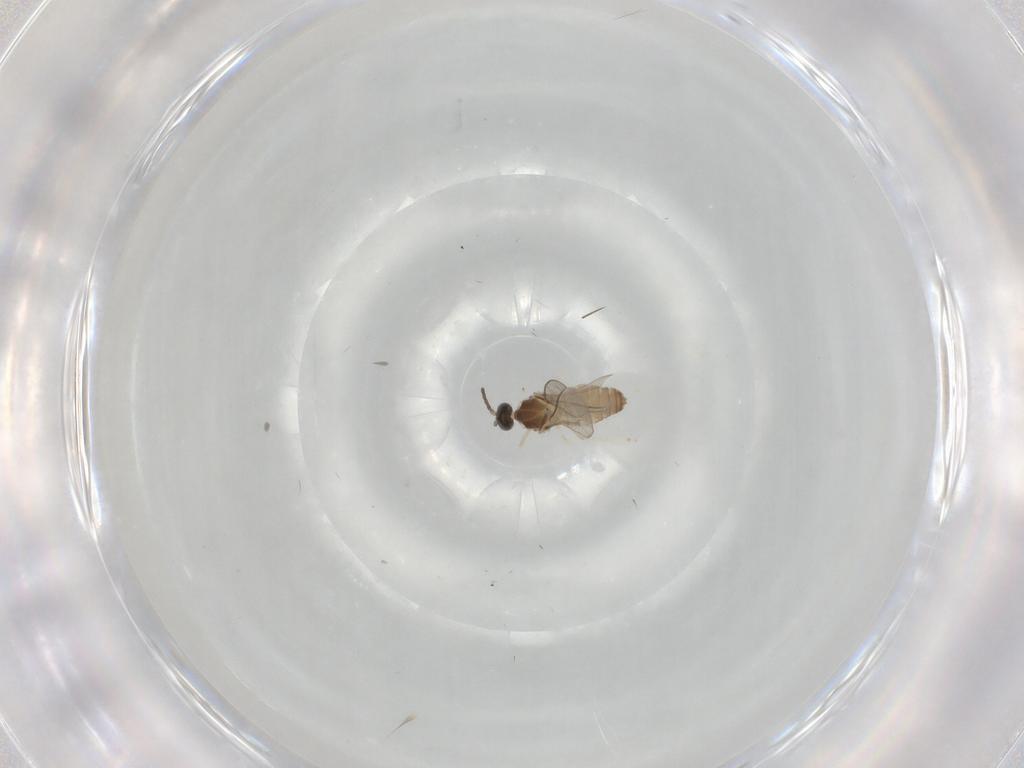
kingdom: Animalia
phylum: Arthropoda
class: Insecta
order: Diptera
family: Cecidomyiidae
